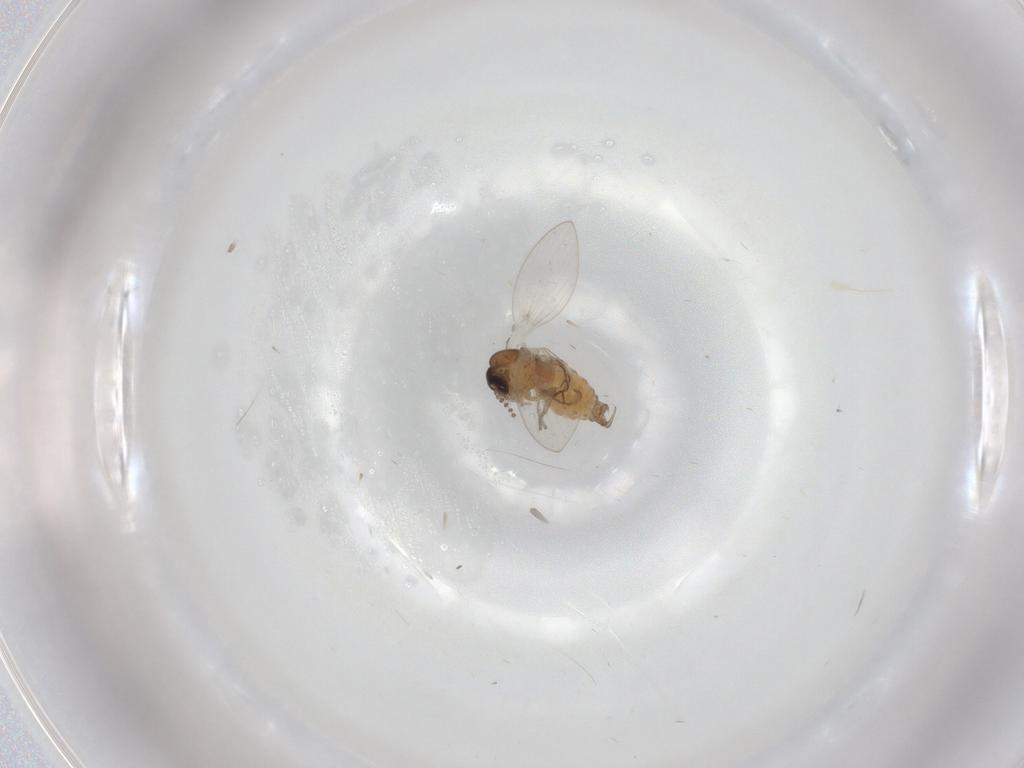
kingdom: Animalia
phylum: Arthropoda
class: Insecta
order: Diptera
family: Psychodidae
